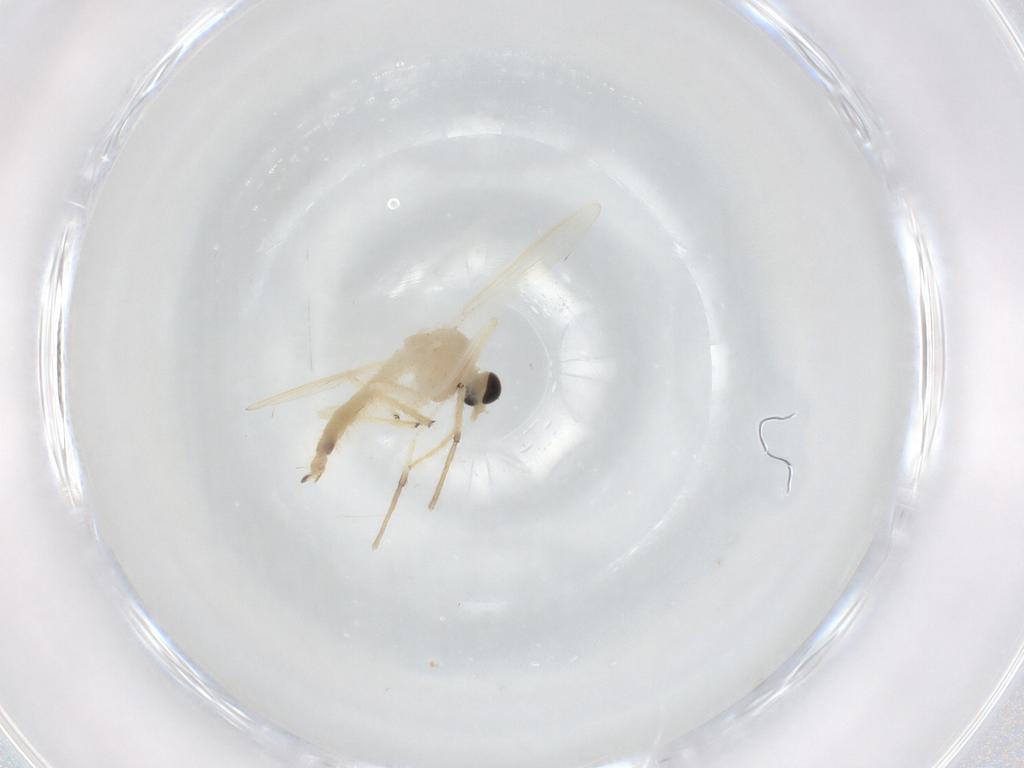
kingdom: Animalia
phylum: Arthropoda
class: Insecta
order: Diptera
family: Chironomidae
